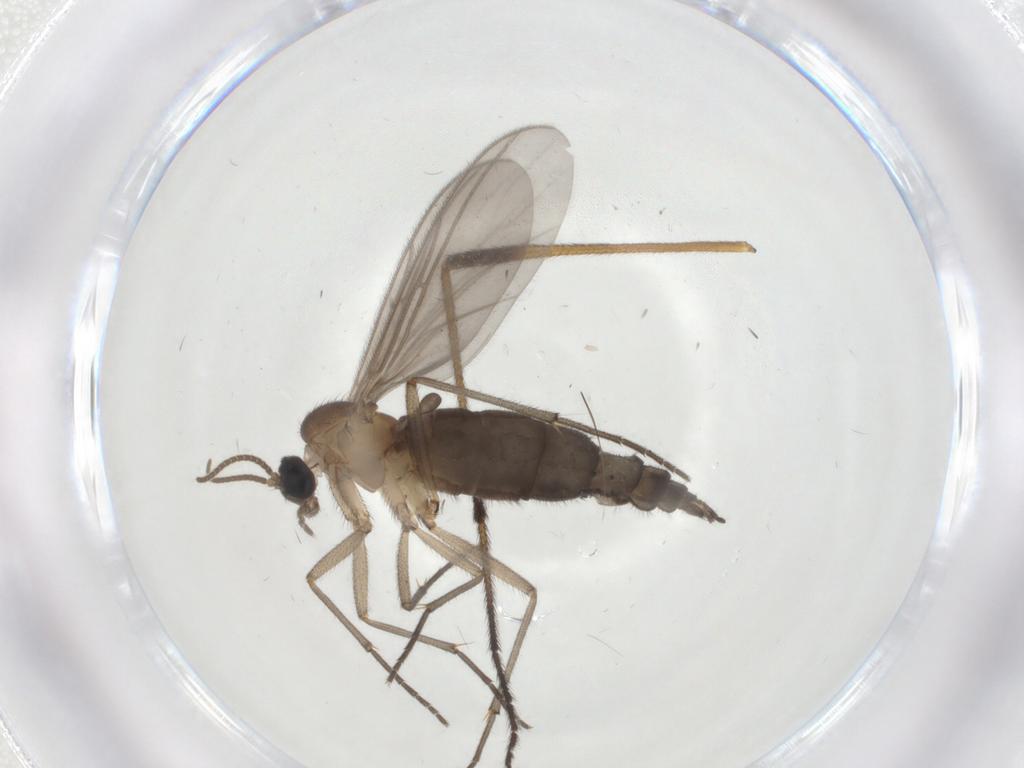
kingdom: Animalia
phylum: Arthropoda
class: Insecta
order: Diptera
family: Limoniidae
